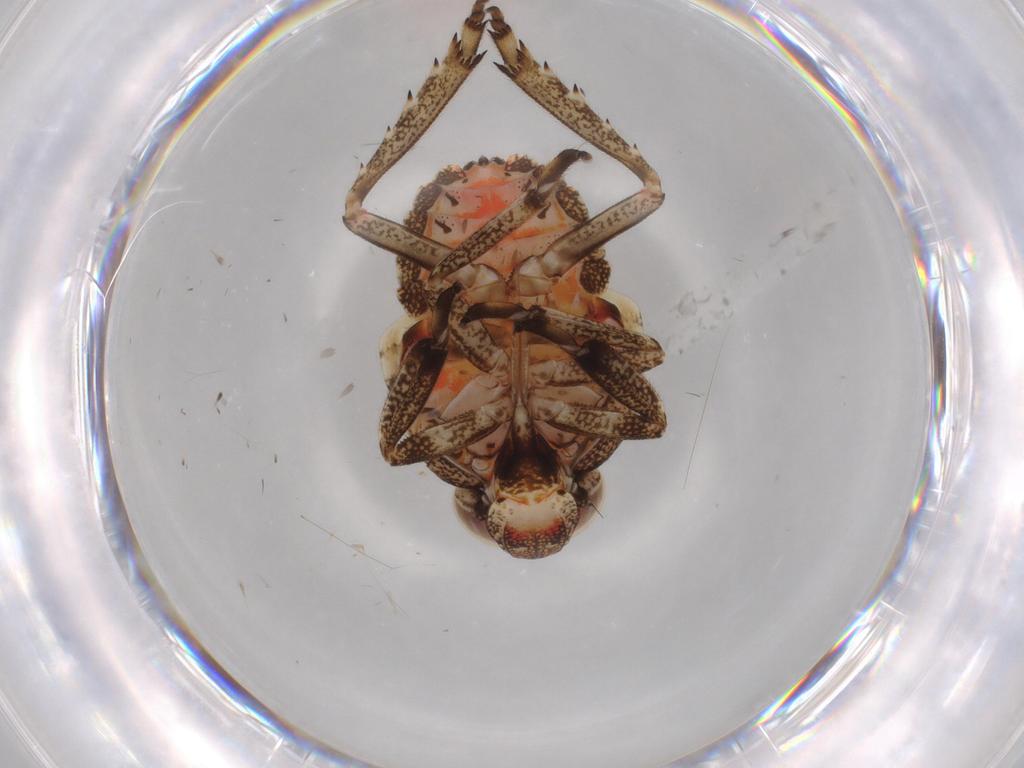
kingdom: Animalia
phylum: Arthropoda
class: Insecta
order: Hemiptera
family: Issidae
